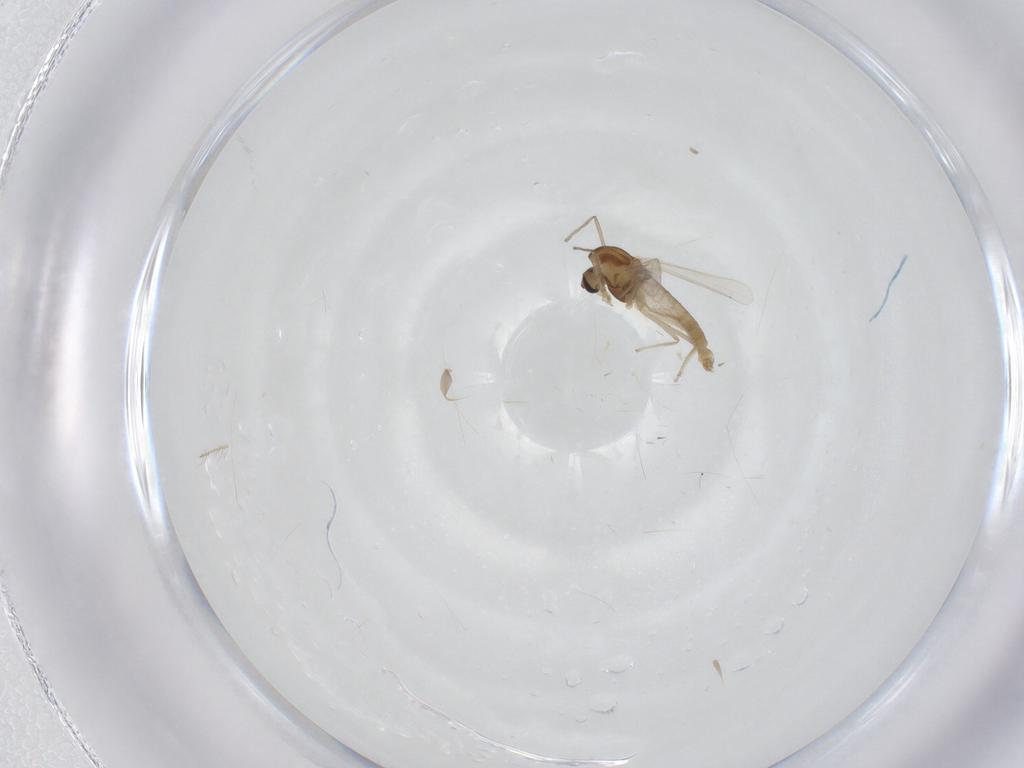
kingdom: Animalia
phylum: Arthropoda
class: Insecta
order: Diptera
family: Chironomidae
